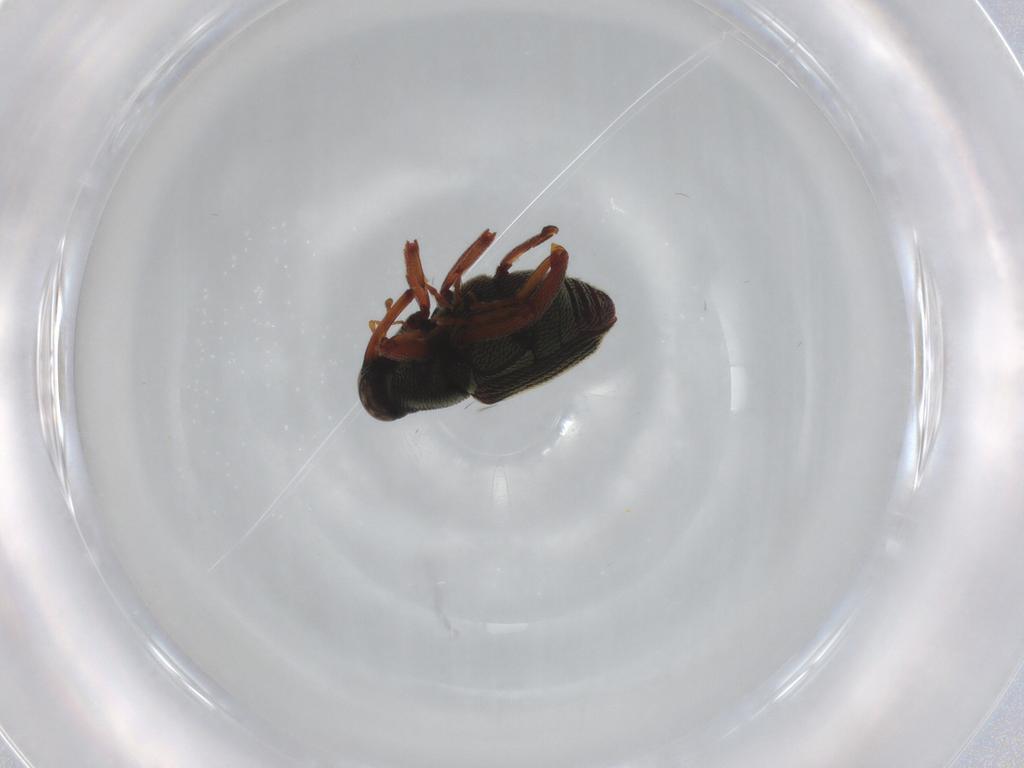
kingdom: Animalia
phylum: Arthropoda
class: Insecta
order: Coleoptera
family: Curculionidae
